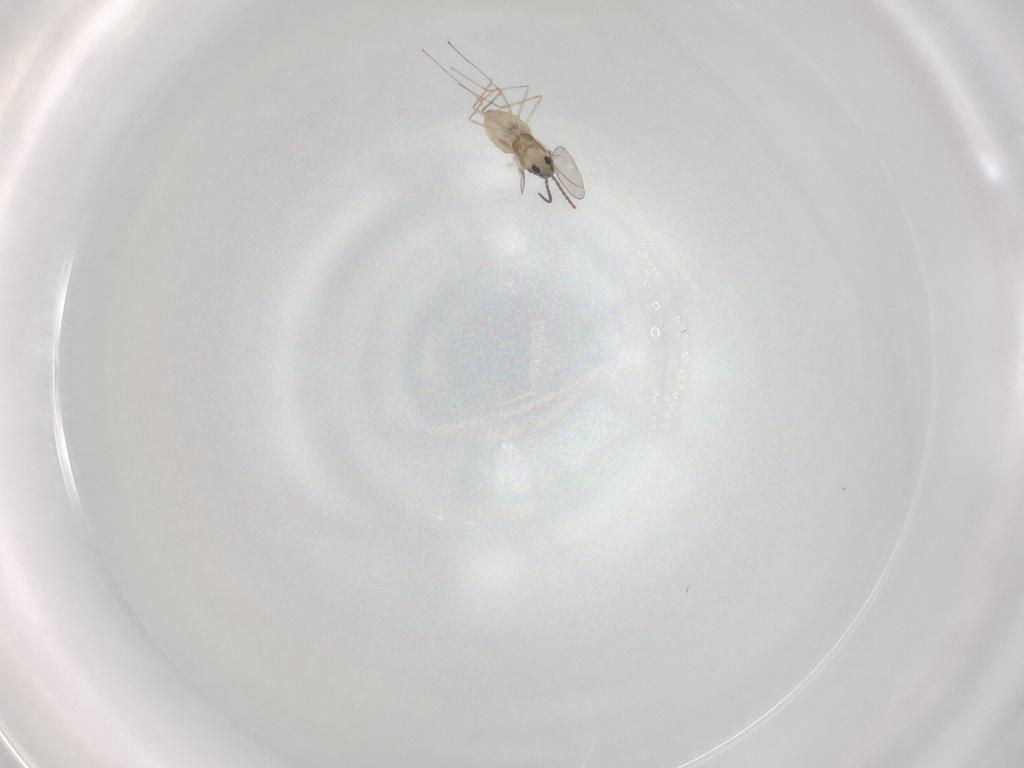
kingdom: Animalia
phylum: Arthropoda
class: Insecta
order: Diptera
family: Cecidomyiidae
